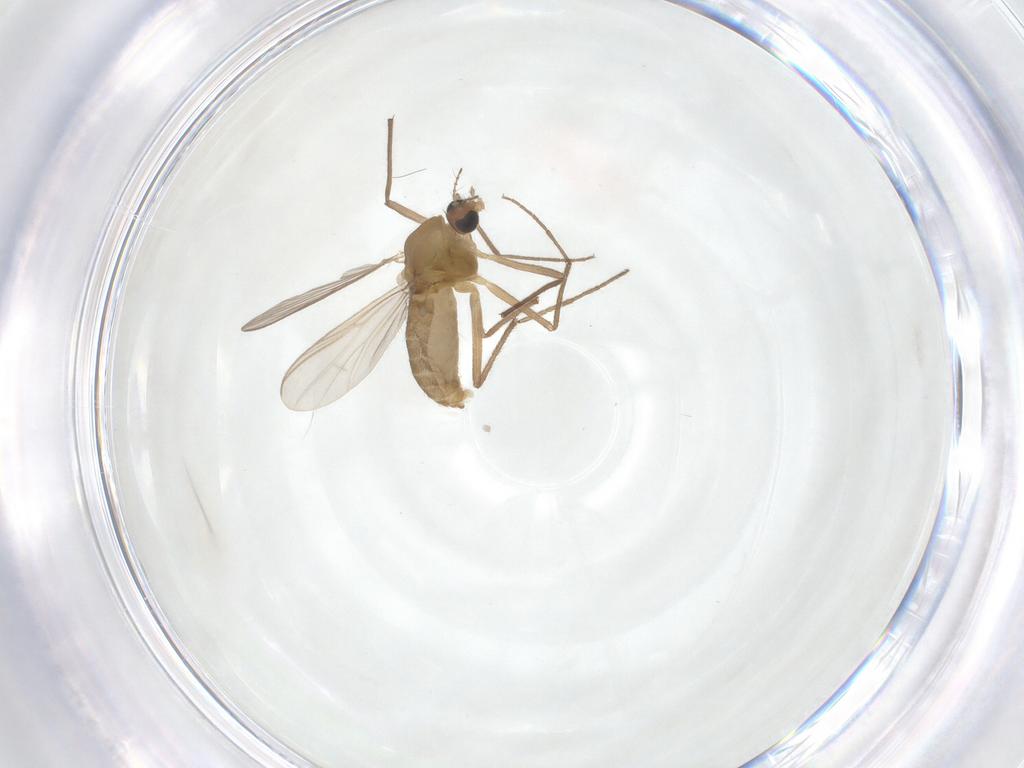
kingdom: Animalia
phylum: Arthropoda
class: Insecta
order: Diptera
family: Chironomidae
